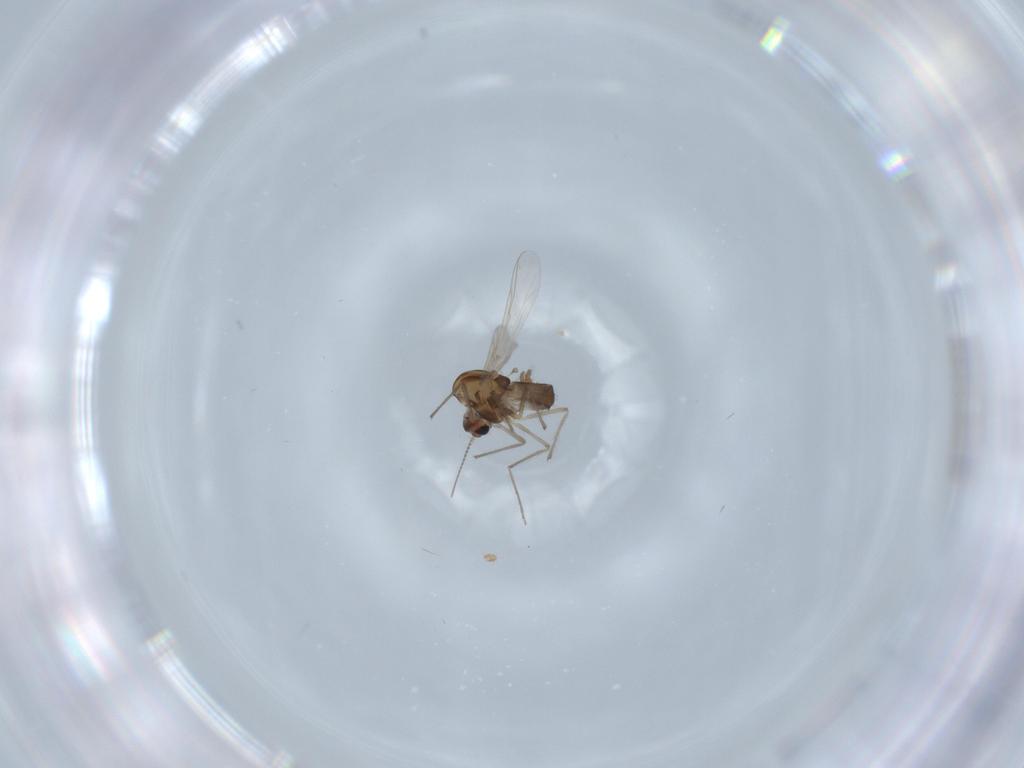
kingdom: Animalia
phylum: Arthropoda
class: Insecta
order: Diptera
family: Chironomidae
